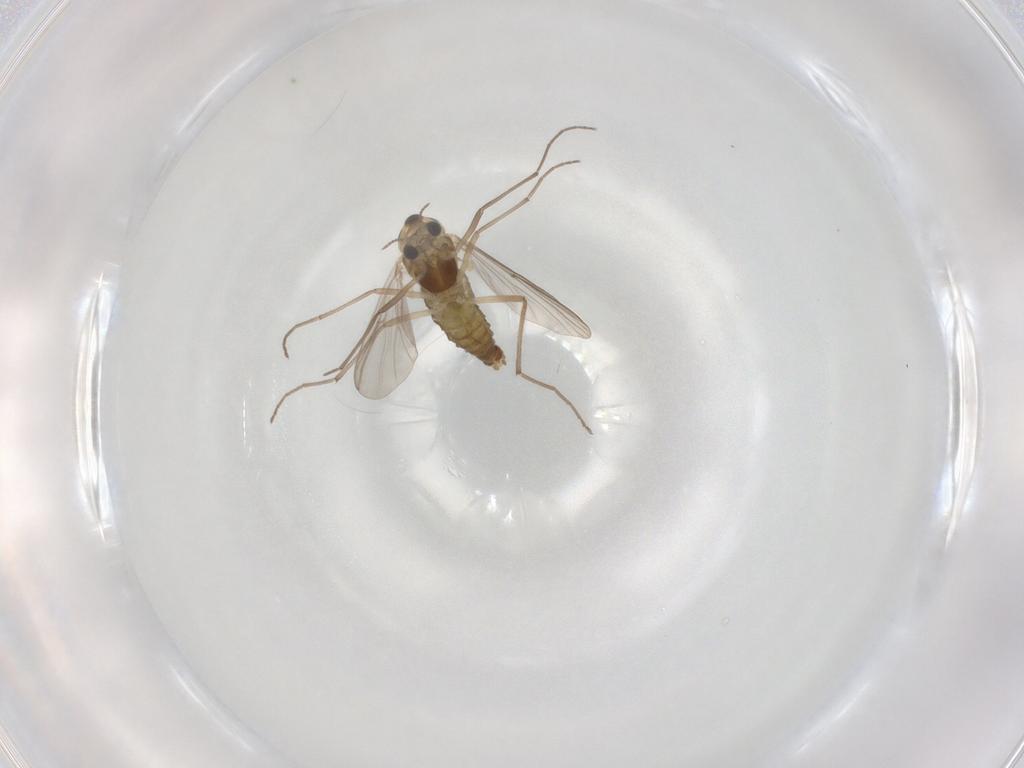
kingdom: Animalia
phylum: Arthropoda
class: Insecta
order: Diptera
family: Chironomidae
